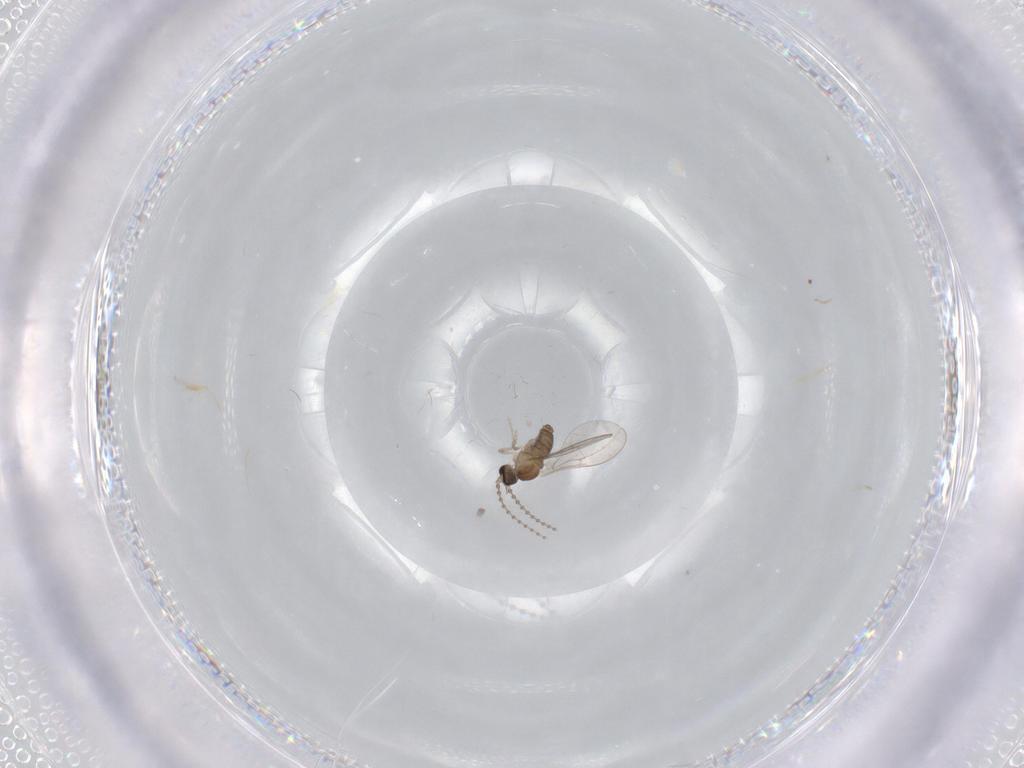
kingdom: Animalia
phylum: Arthropoda
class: Insecta
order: Diptera
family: Cecidomyiidae
